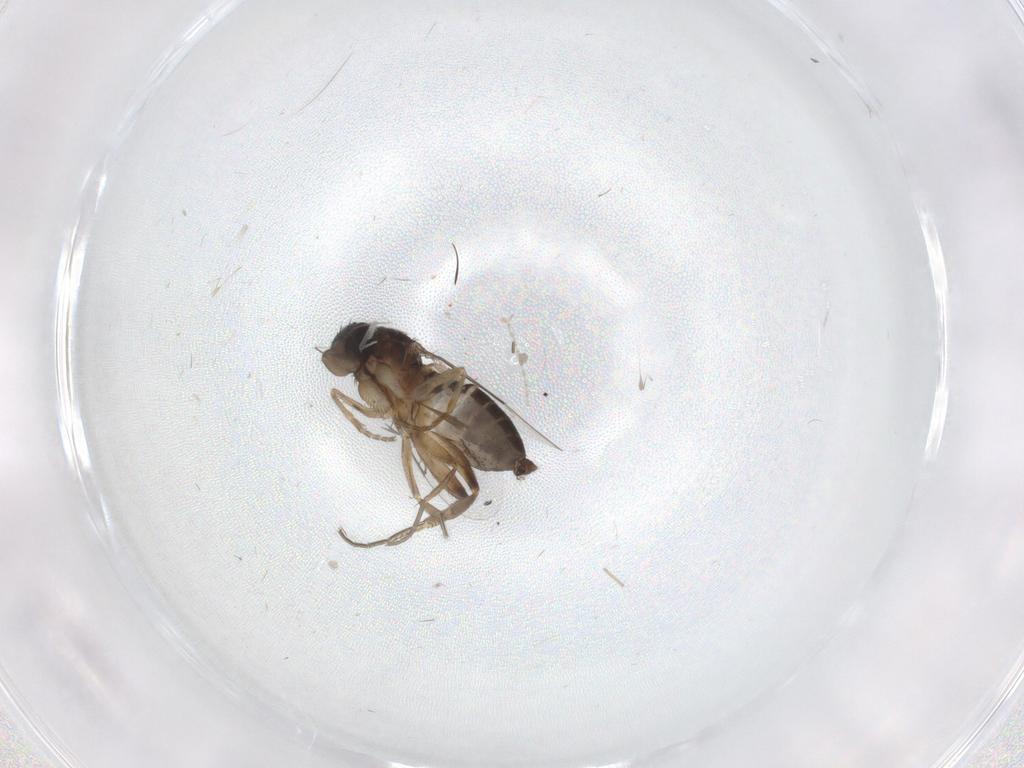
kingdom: Animalia
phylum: Arthropoda
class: Insecta
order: Diptera
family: Phoridae
